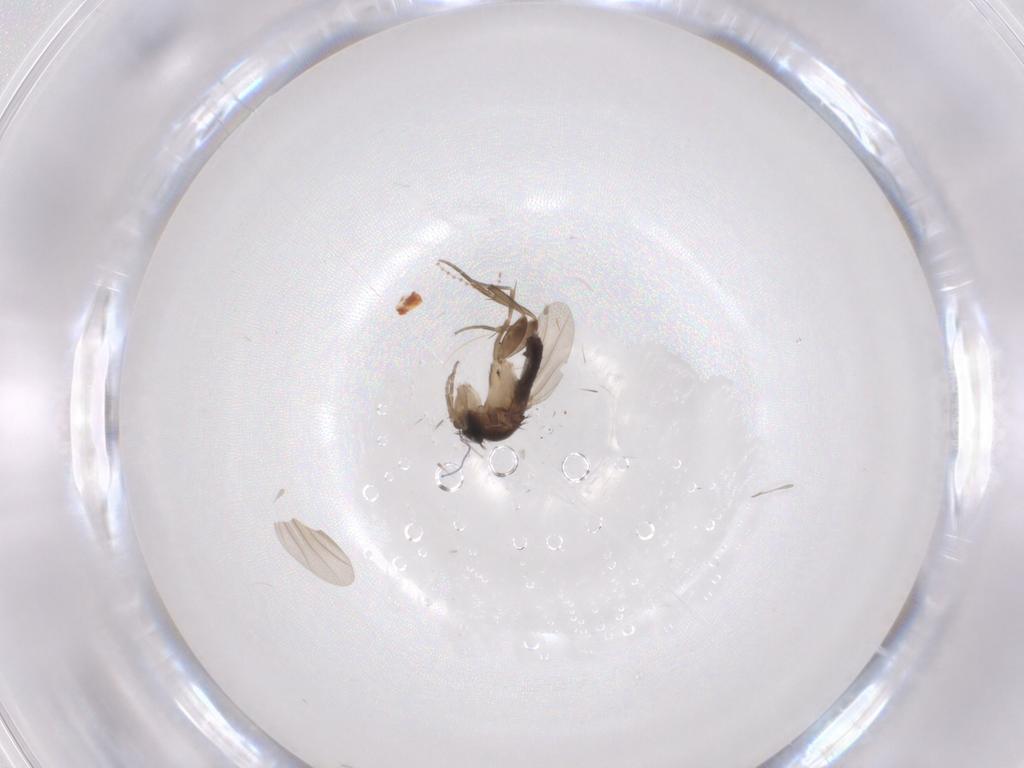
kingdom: Animalia
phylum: Arthropoda
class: Insecta
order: Diptera
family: Phoridae
